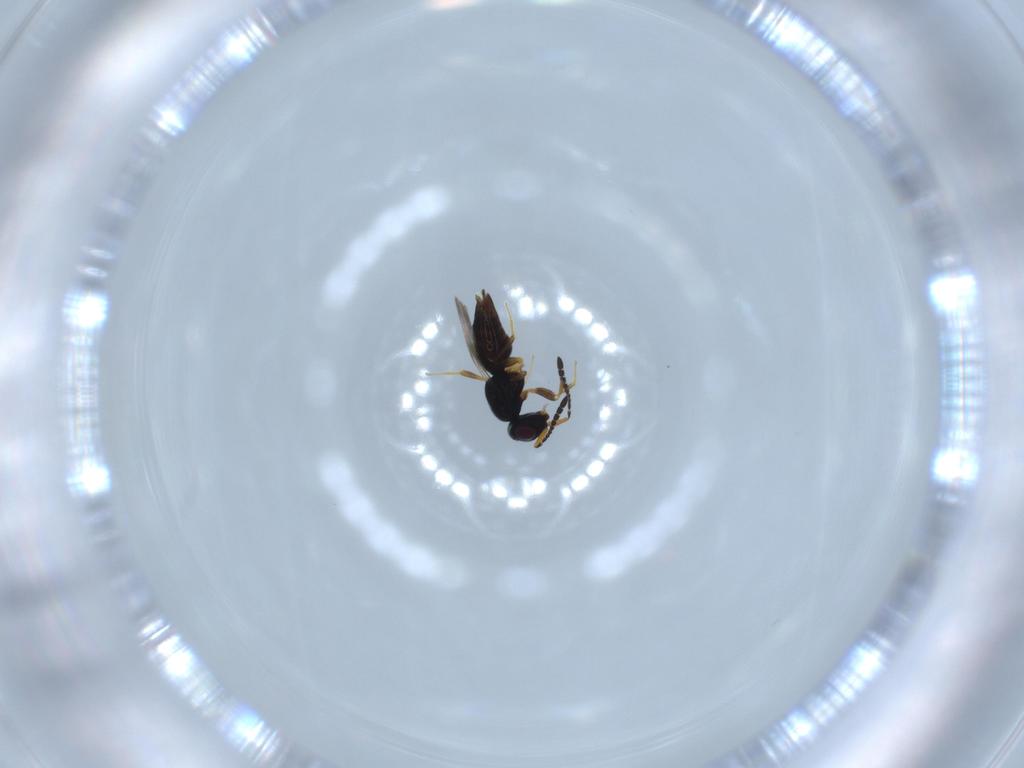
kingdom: Animalia
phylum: Arthropoda
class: Insecta
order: Hymenoptera
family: Ceraphronidae
